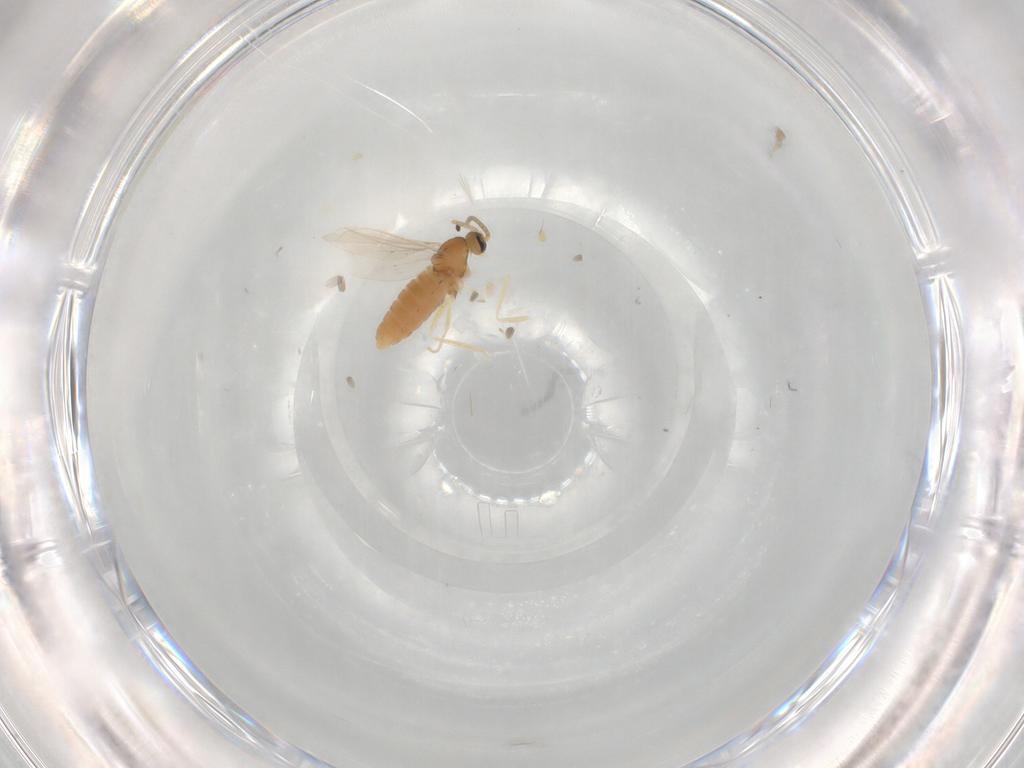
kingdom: Animalia
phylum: Arthropoda
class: Insecta
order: Diptera
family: Cecidomyiidae
